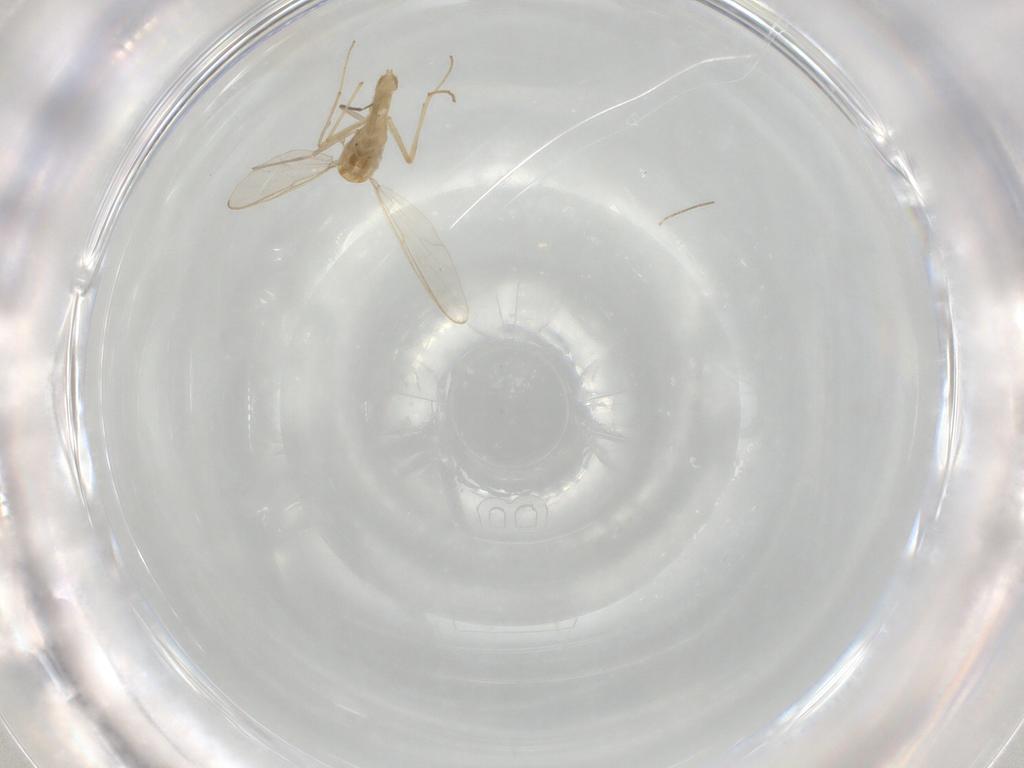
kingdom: Animalia
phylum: Arthropoda
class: Insecta
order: Diptera
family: Chironomidae
